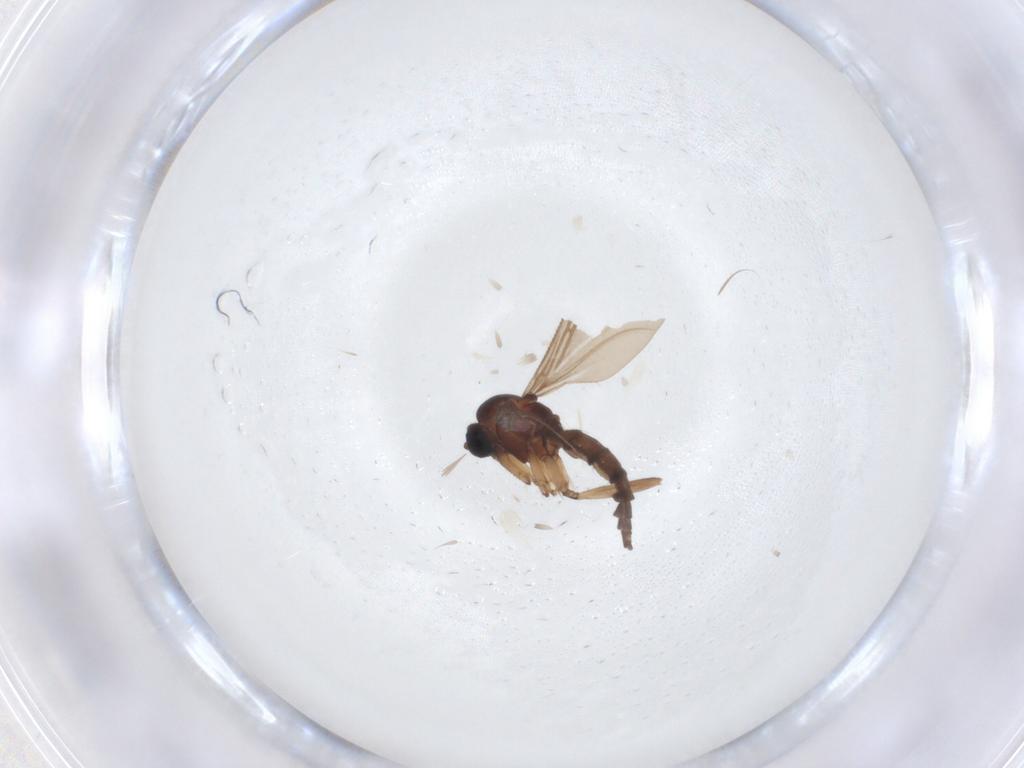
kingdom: Animalia
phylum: Arthropoda
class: Insecta
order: Diptera
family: Sciaridae
